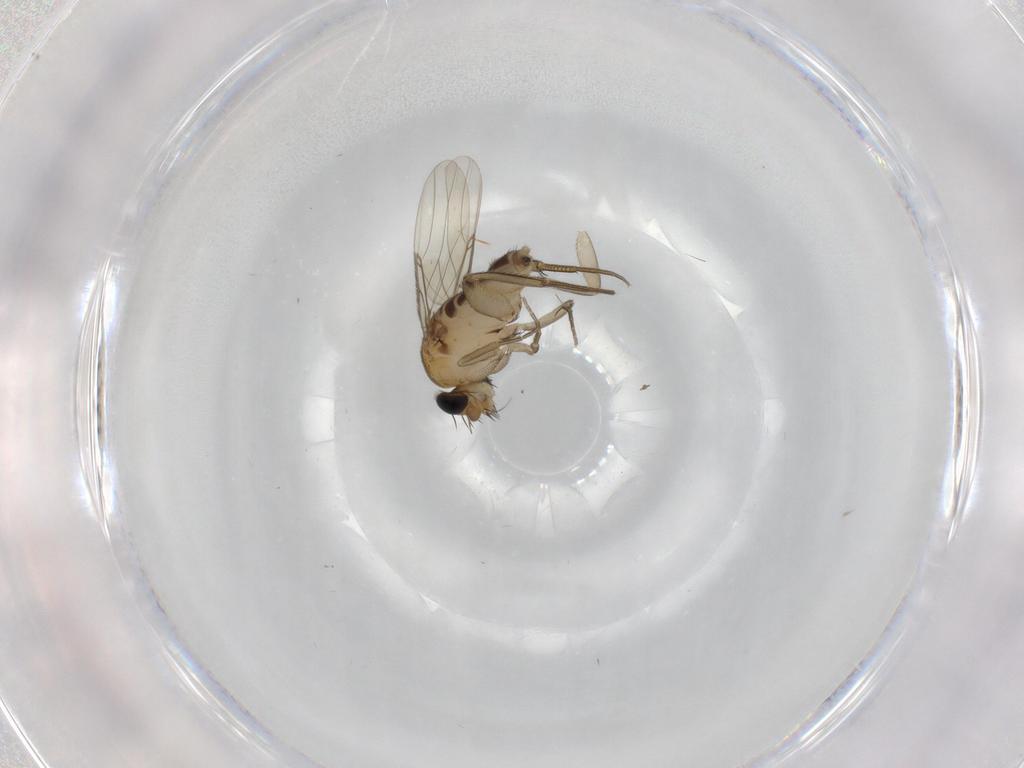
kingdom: Animalia
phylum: Arthropoda
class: Insecta
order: Diptera
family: Phoridae
